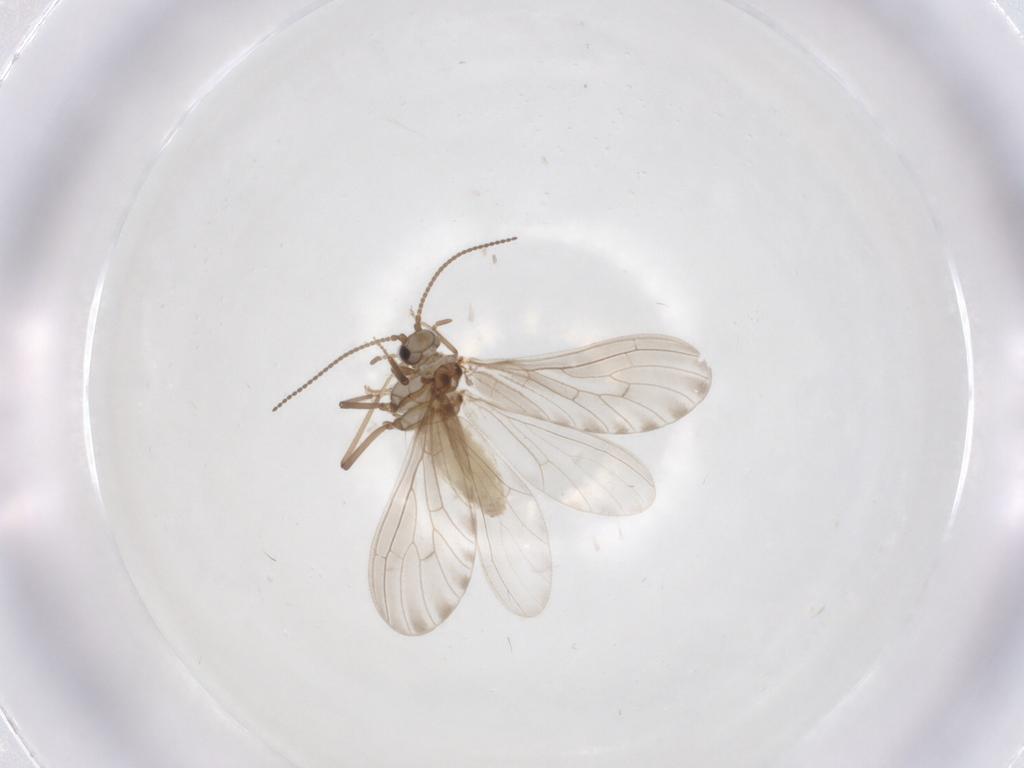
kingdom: Animalia
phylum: Arthropoda
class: Insecta
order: Neuroptera
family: Coniopterygidae
